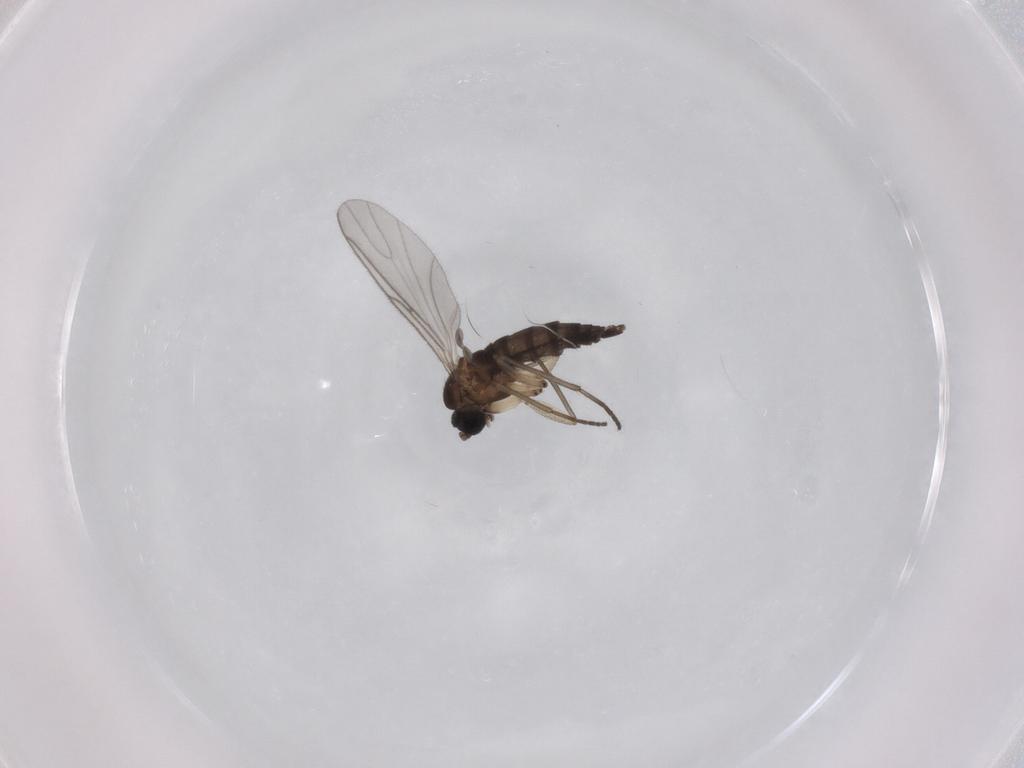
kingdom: Animalia
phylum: Arthropoda
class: Insecta
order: Diptera
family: Sciaridae
